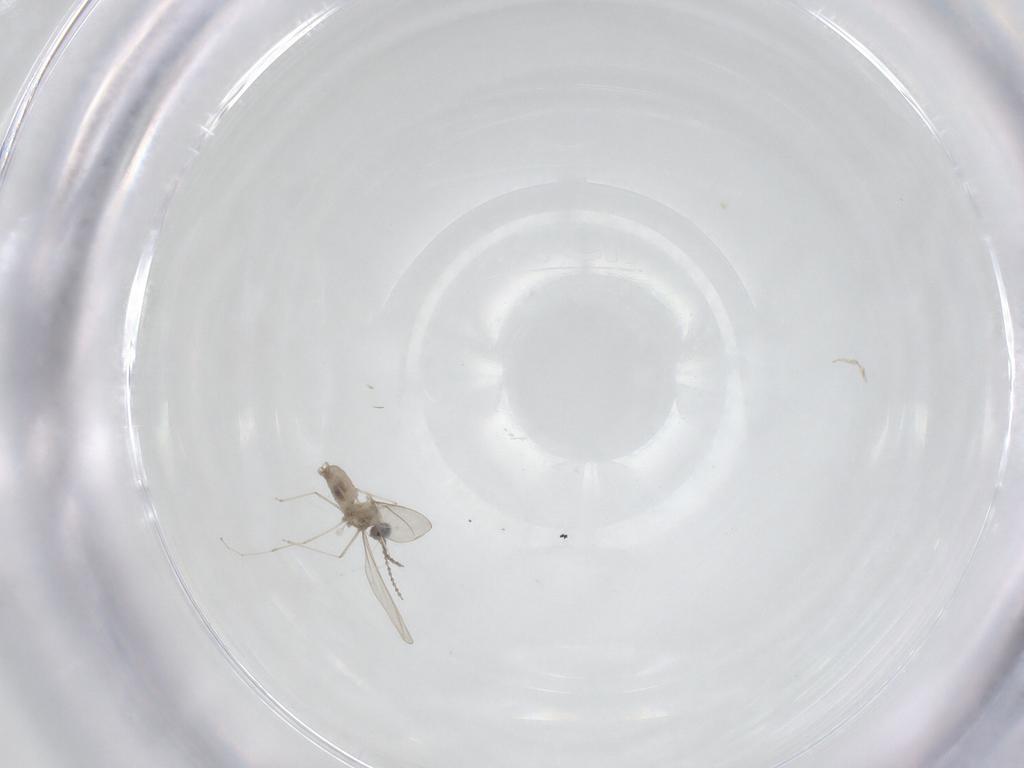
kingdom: Animalia
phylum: Arthropoda
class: Insecta
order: Diptera
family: Cecidomyiidae
